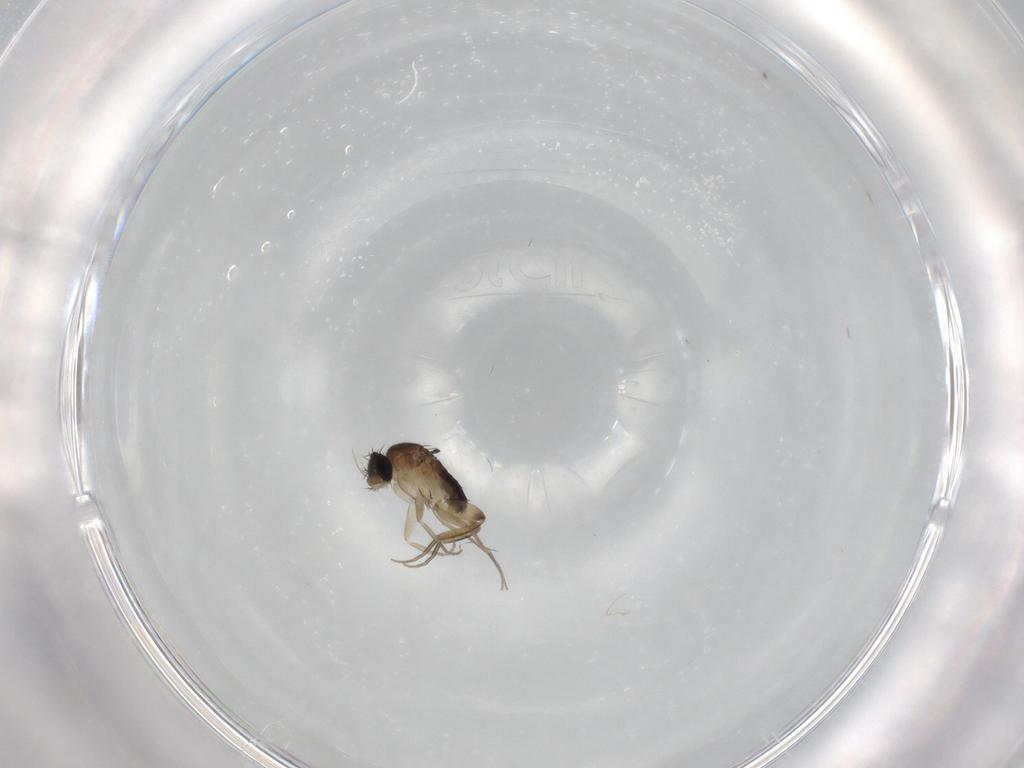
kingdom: Animalia
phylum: Arthropoda
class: Insecta
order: Diptera
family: Phoridae
